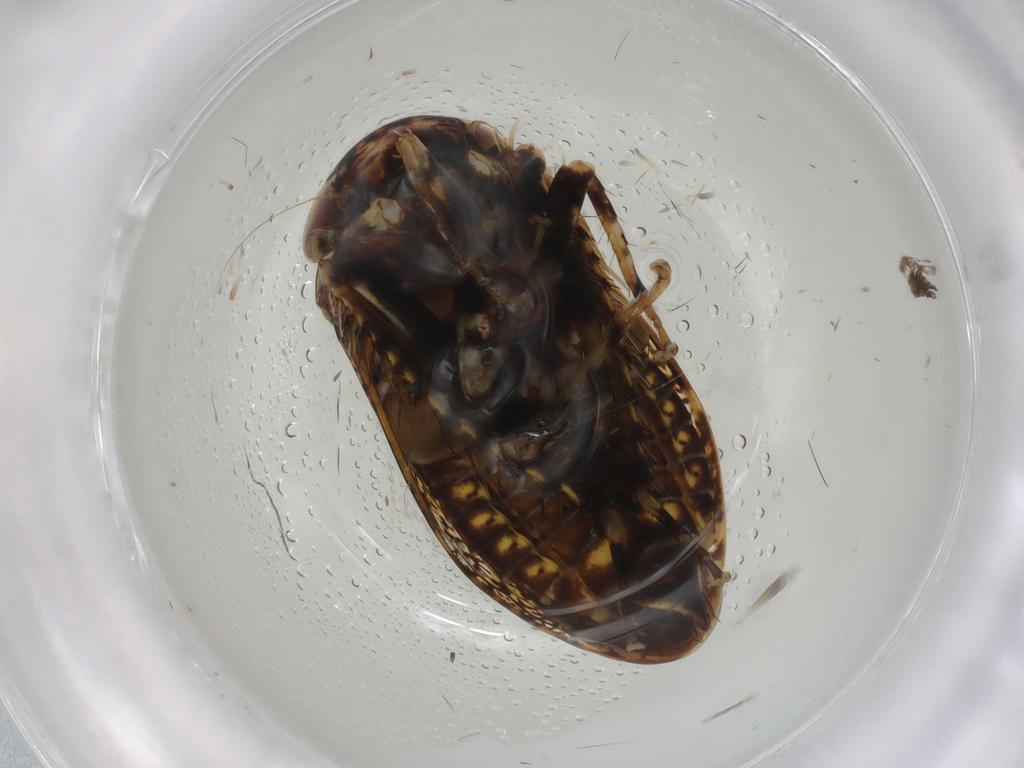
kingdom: Animalia
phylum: Arthropoda
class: Insecta
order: Hemiptera
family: Cicadellidae
